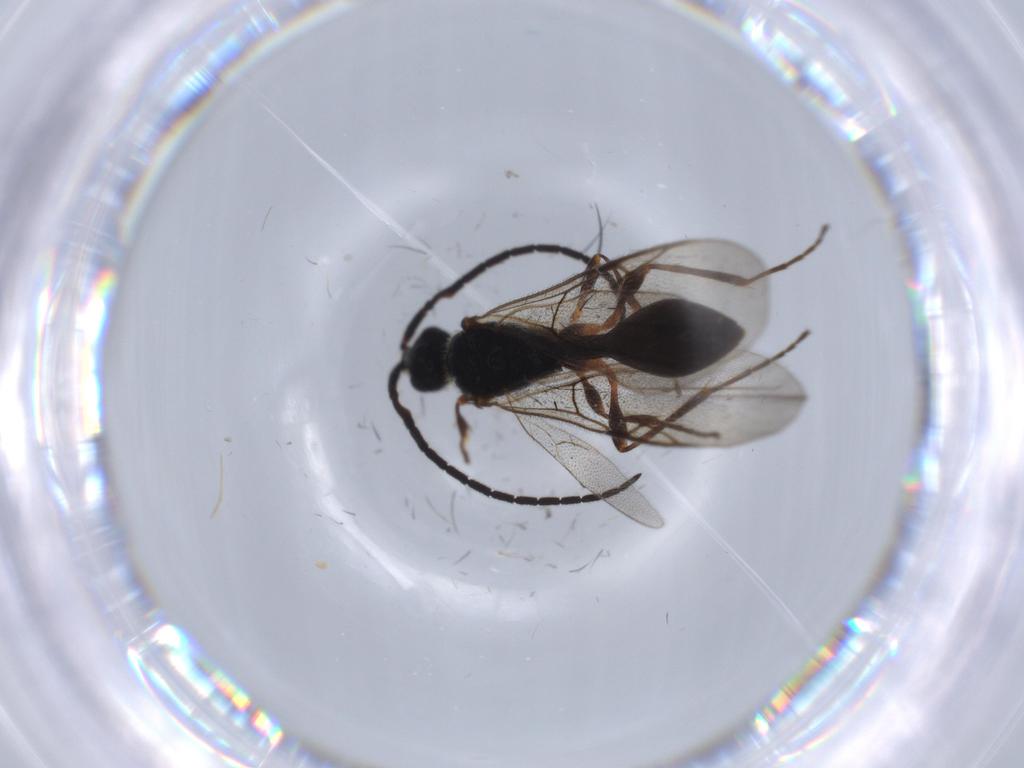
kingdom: Animalia
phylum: Arthropoda
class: Insecta
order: Hymenoptera
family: Braconidae
